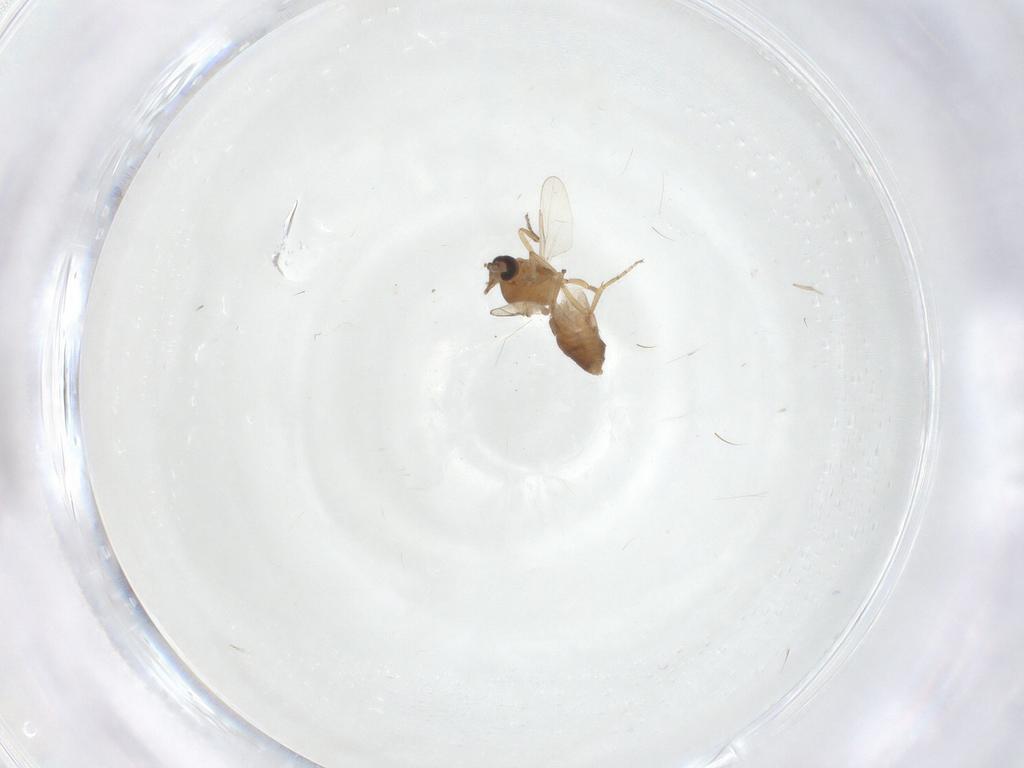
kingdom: Animalia
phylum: Arthropoda
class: Insecta
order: Diptera
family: Ceratopogonidae
